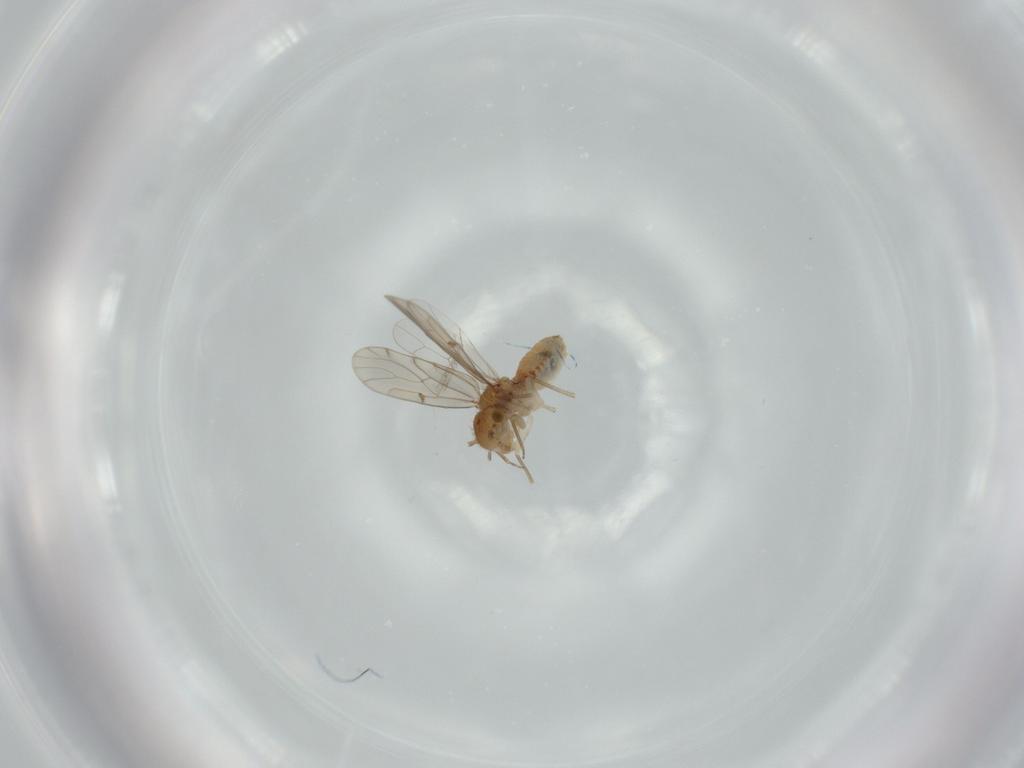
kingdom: Animalia
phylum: Arthropoda
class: Insecta
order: Psocodea
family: Ectopsocidae
